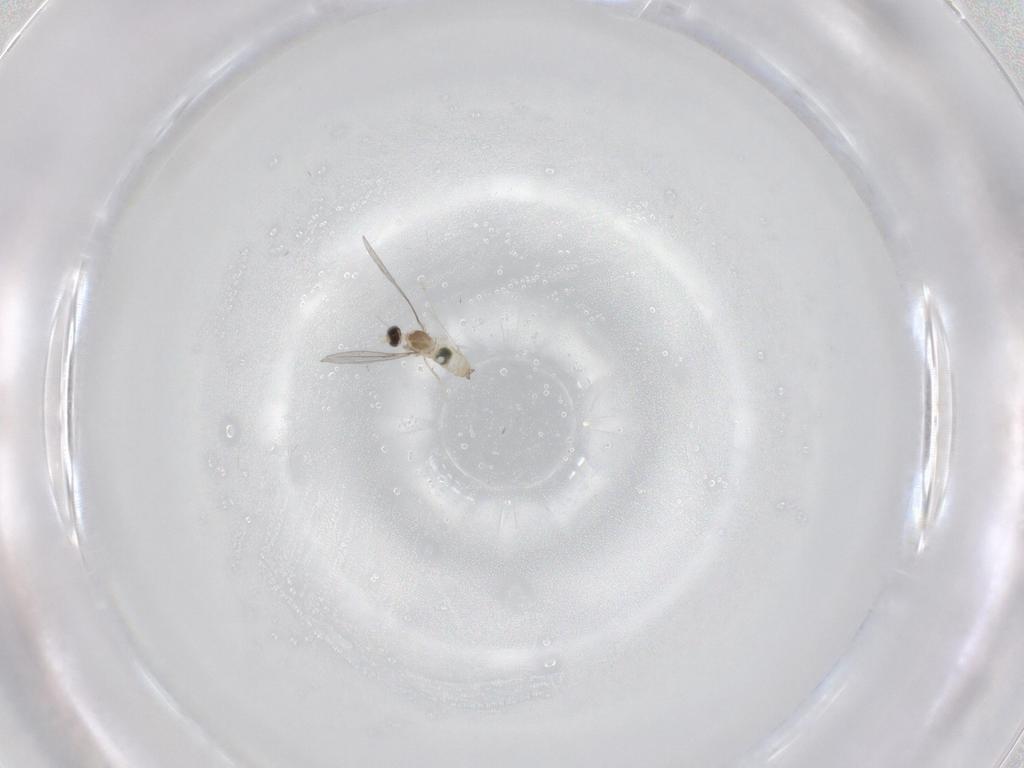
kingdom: Animalia
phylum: Arthropoda
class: Insecta
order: Diptera
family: Cecidomyiidae
